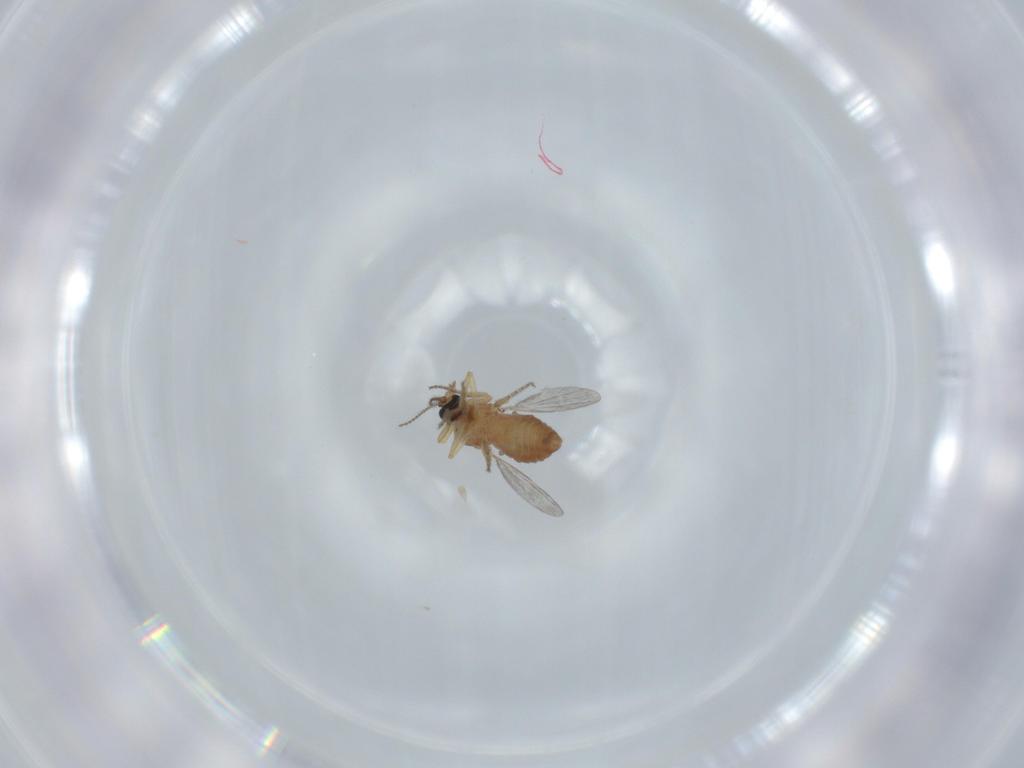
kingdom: Animalia
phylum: Arthropoda
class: Insecta
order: Diptera
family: Ceratopogonidae
